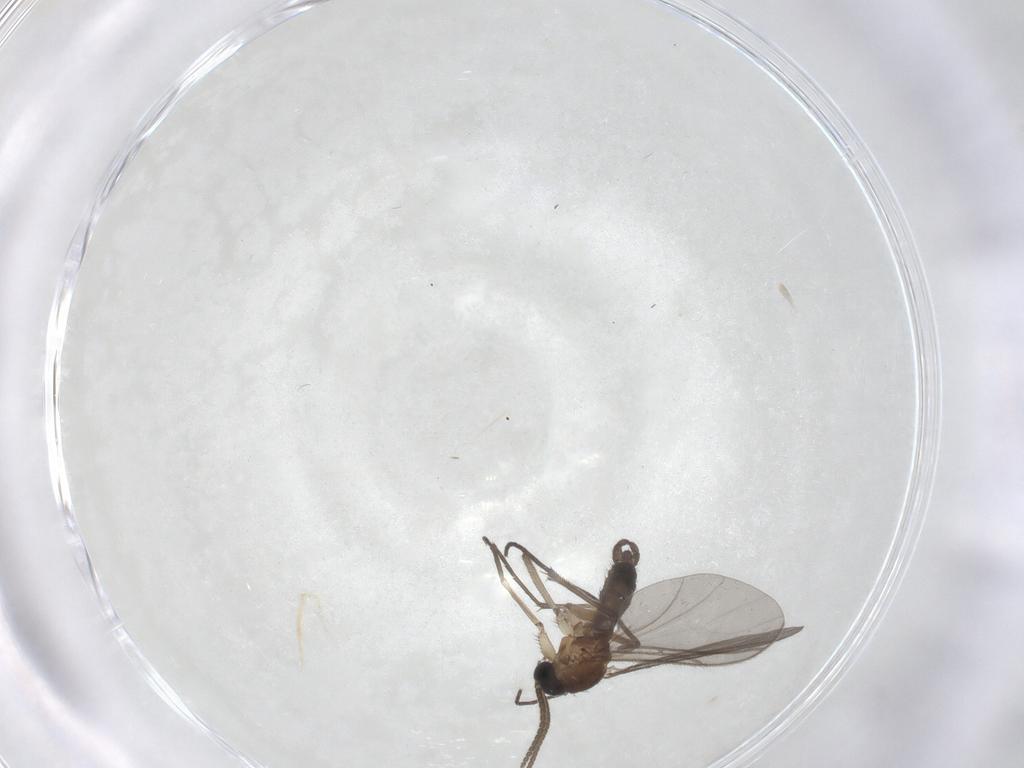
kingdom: Animalia
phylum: Arthropoda
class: Insecta
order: Diptera
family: Sciaridae
